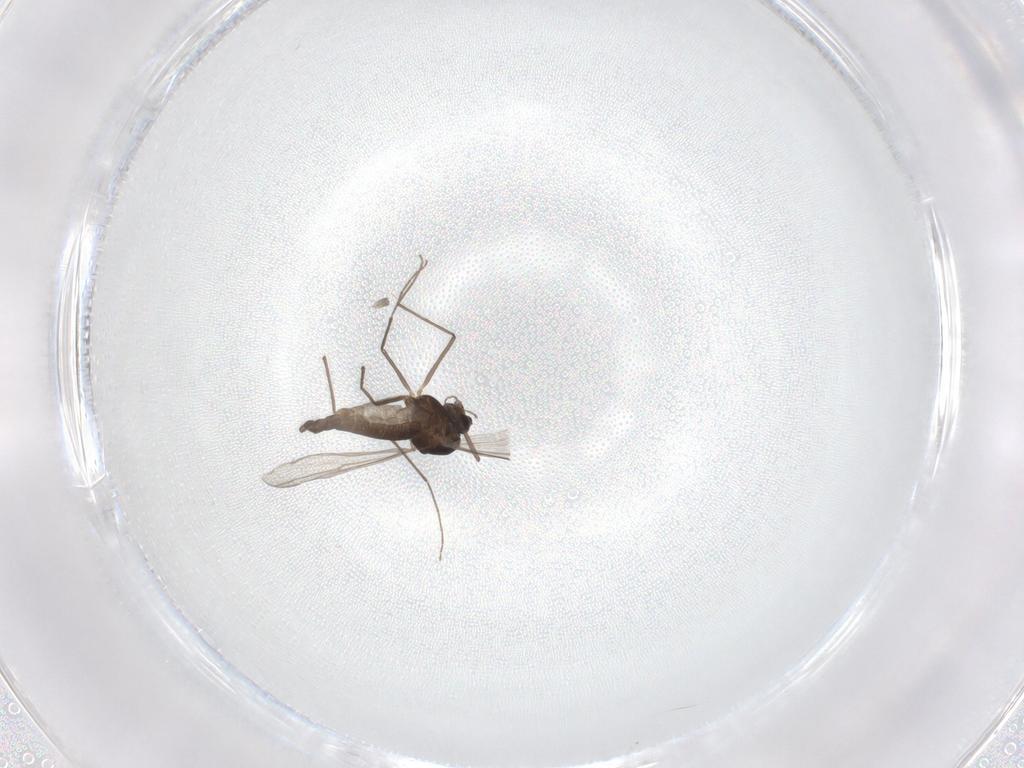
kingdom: Animalia
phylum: Arthropoda
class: Insecta
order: Diptera
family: Chironomidae
